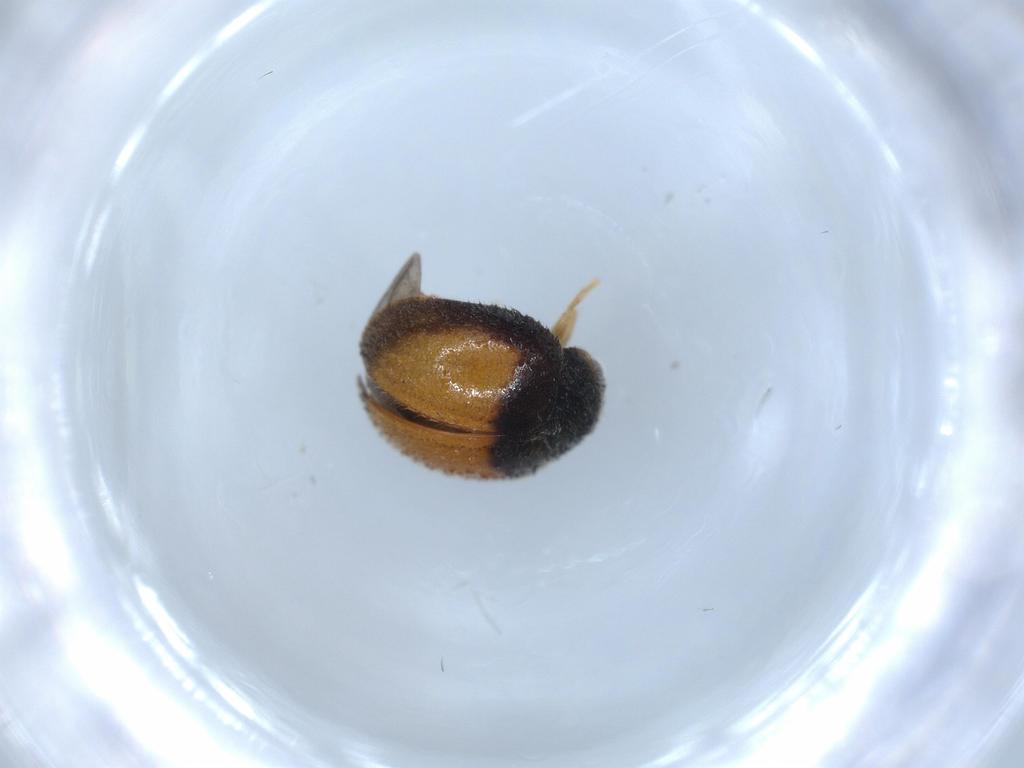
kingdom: Animalia
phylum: Arthropoda
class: Insecta
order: Coleoptera
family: Coccinellidae
